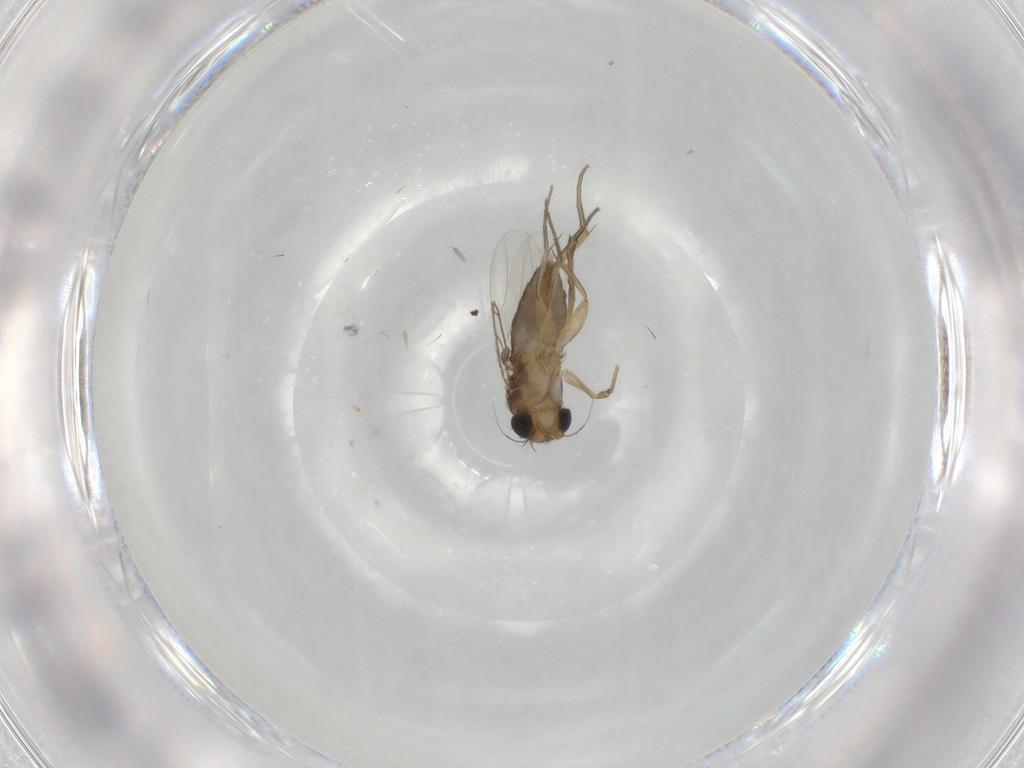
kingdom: Animalia
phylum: Arthropoda
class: Insecta
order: Diptera
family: Phoridae
